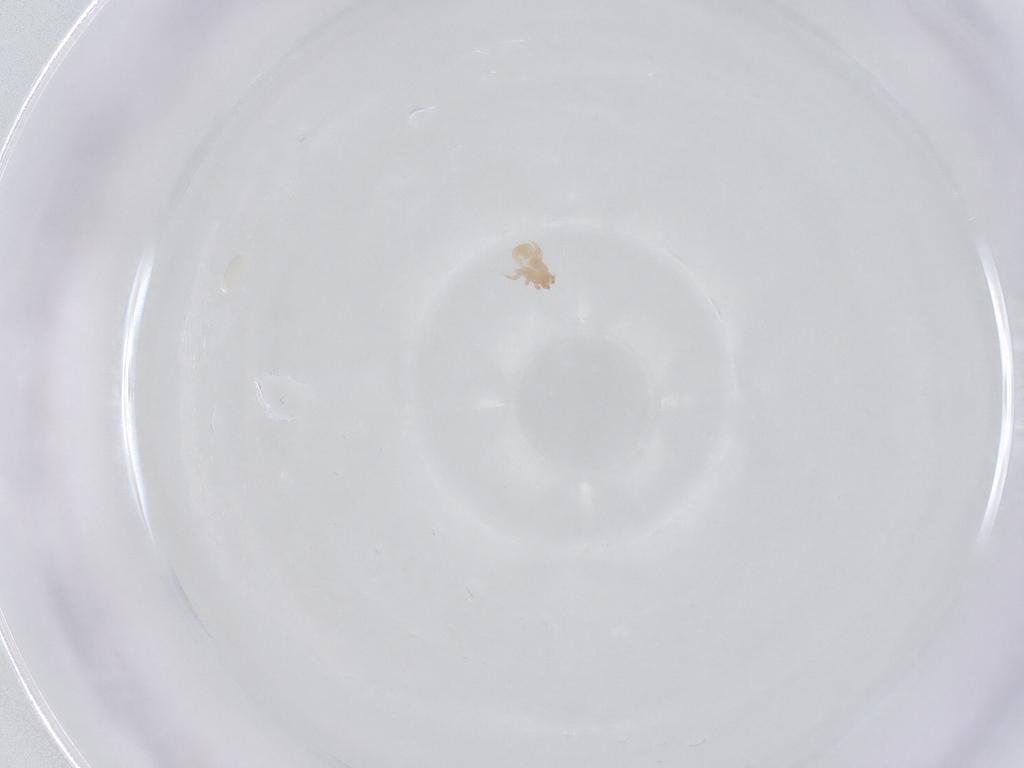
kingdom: Animalia
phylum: Arthropoda
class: Arachnida
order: Mesostigmata
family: Digamasellidae
